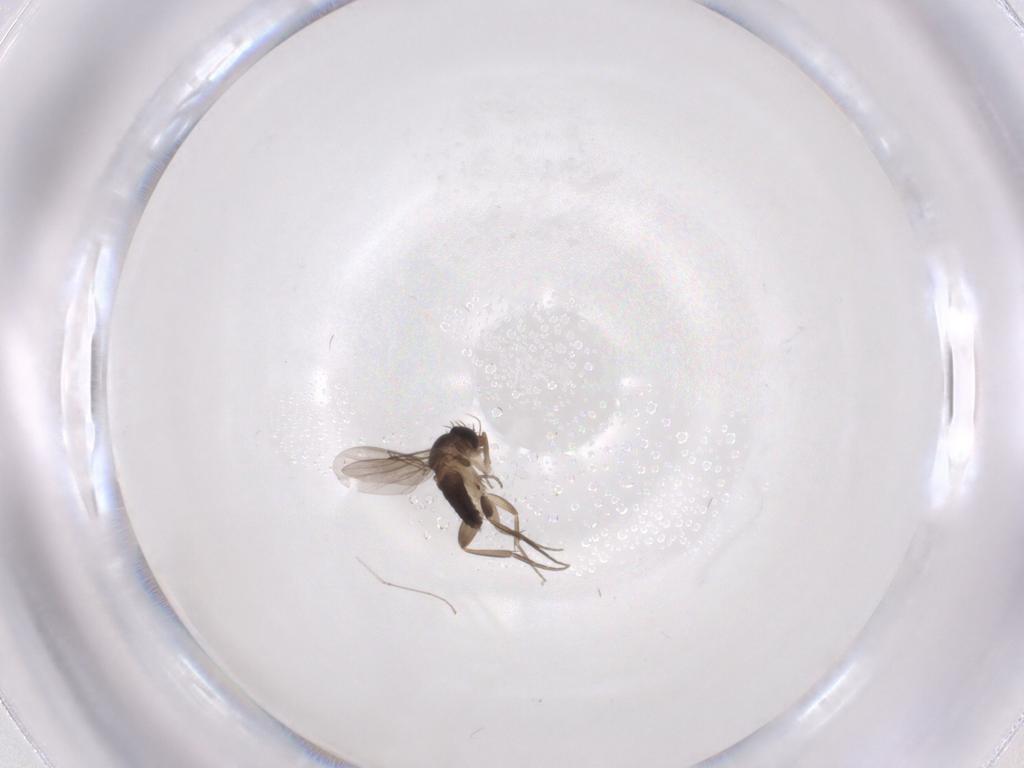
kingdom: Animalia
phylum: Arthropoda
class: Insecta
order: Diptera
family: Phoridae
